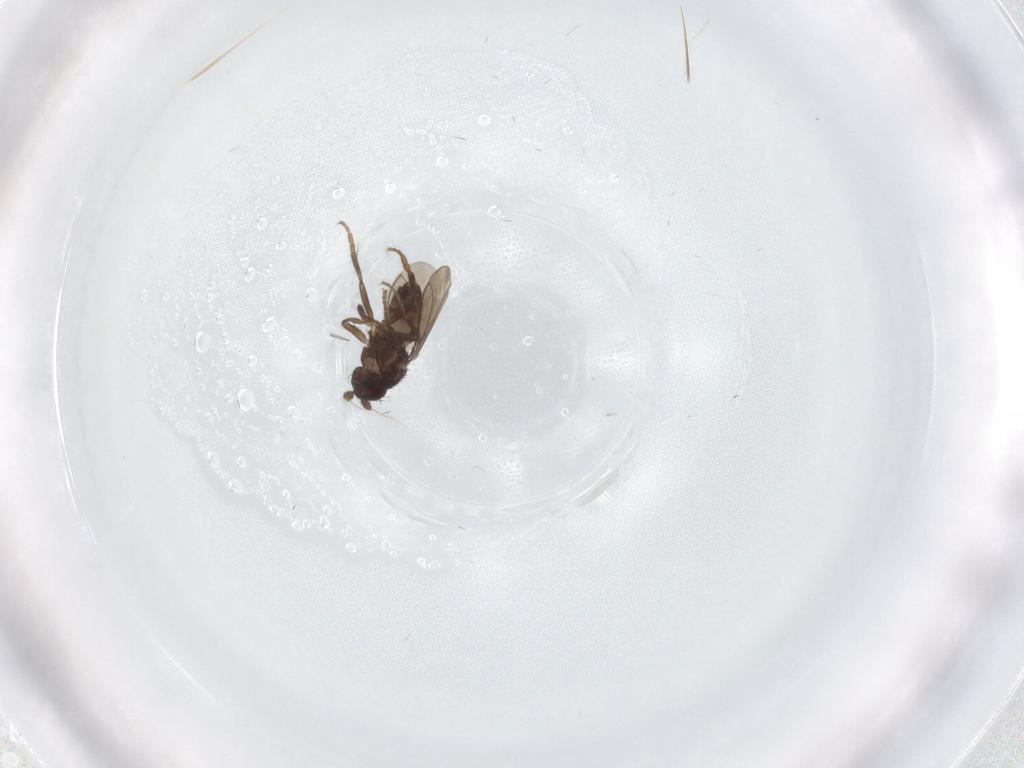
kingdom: Animalia
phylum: Arthropoda
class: Insecta
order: Diptera
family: Sphaeroceridae
